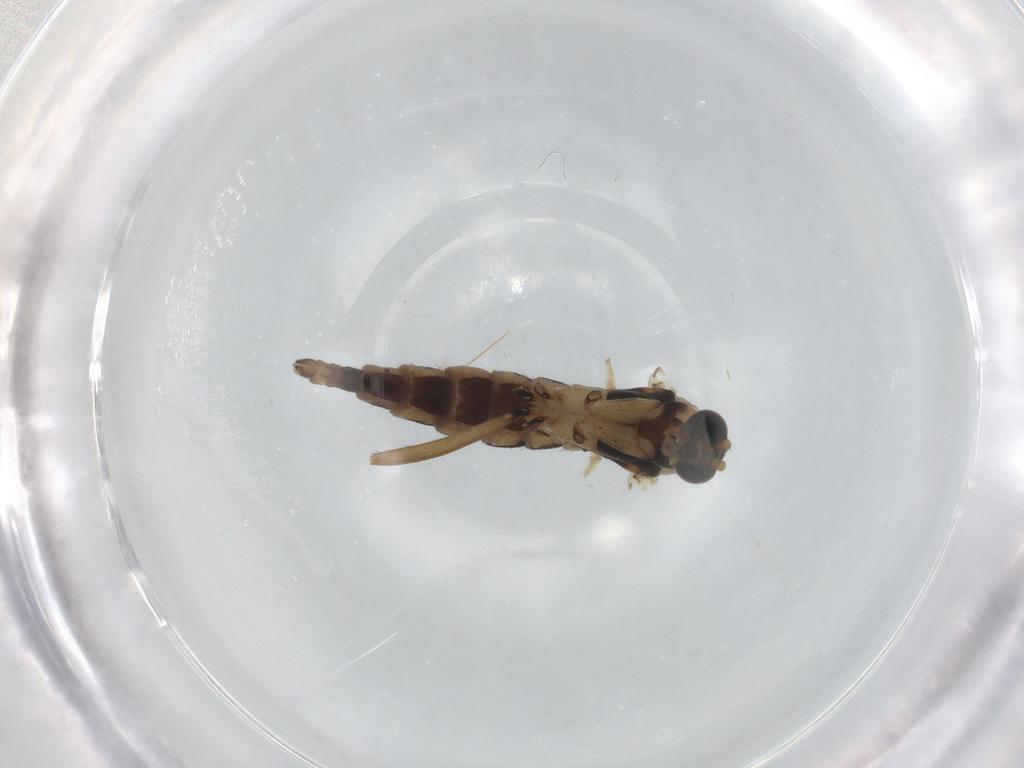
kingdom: Animalia
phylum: Arthropoda
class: Insecta
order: Diptera
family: Sciaridae
